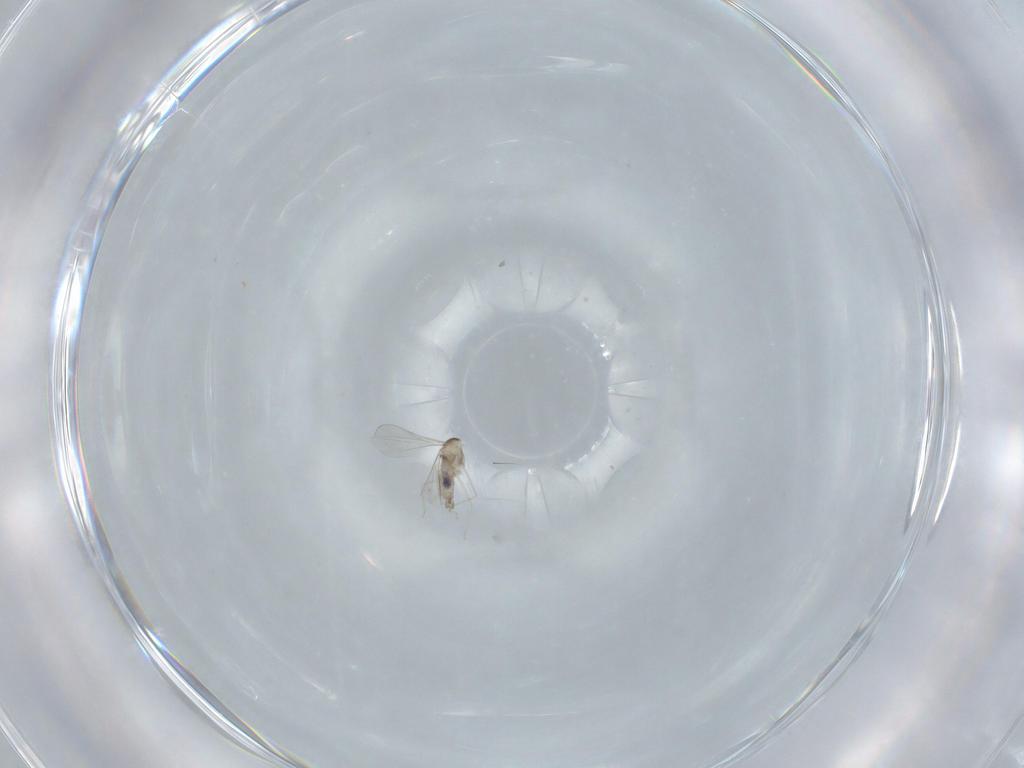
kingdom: Animalia
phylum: Arthropoda
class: Insecta
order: Diptera
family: Cecidomyiidae
